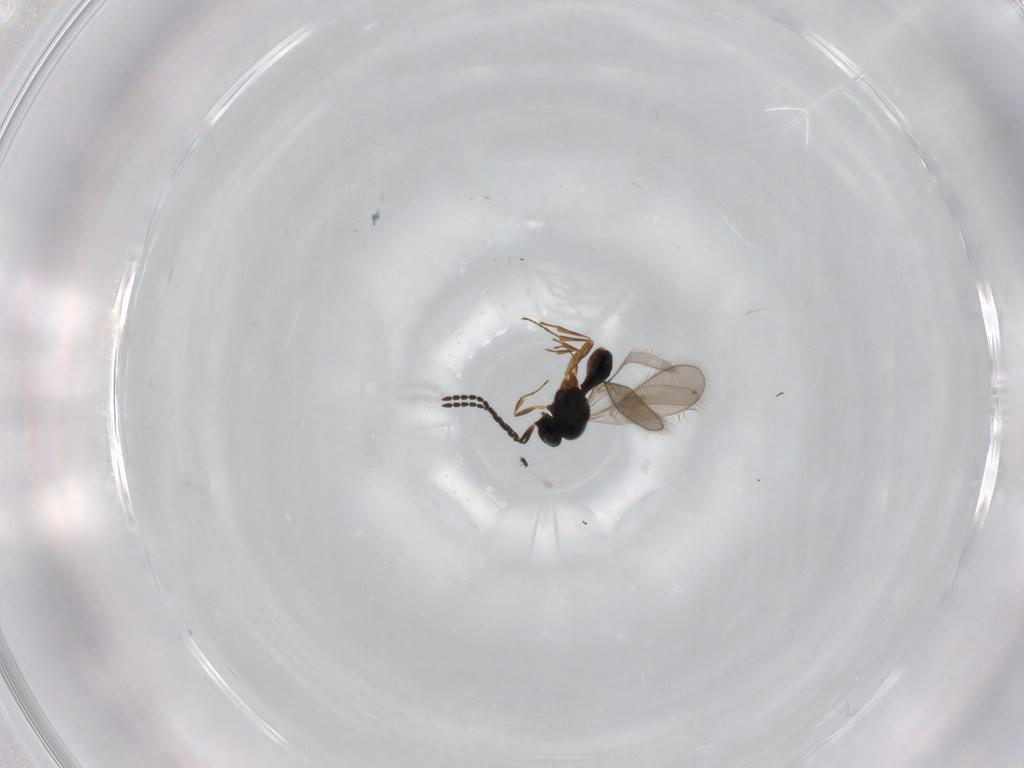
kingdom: Animalia
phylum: Arthropoda
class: Insecta
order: Hymenoptera
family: Scelionidae
